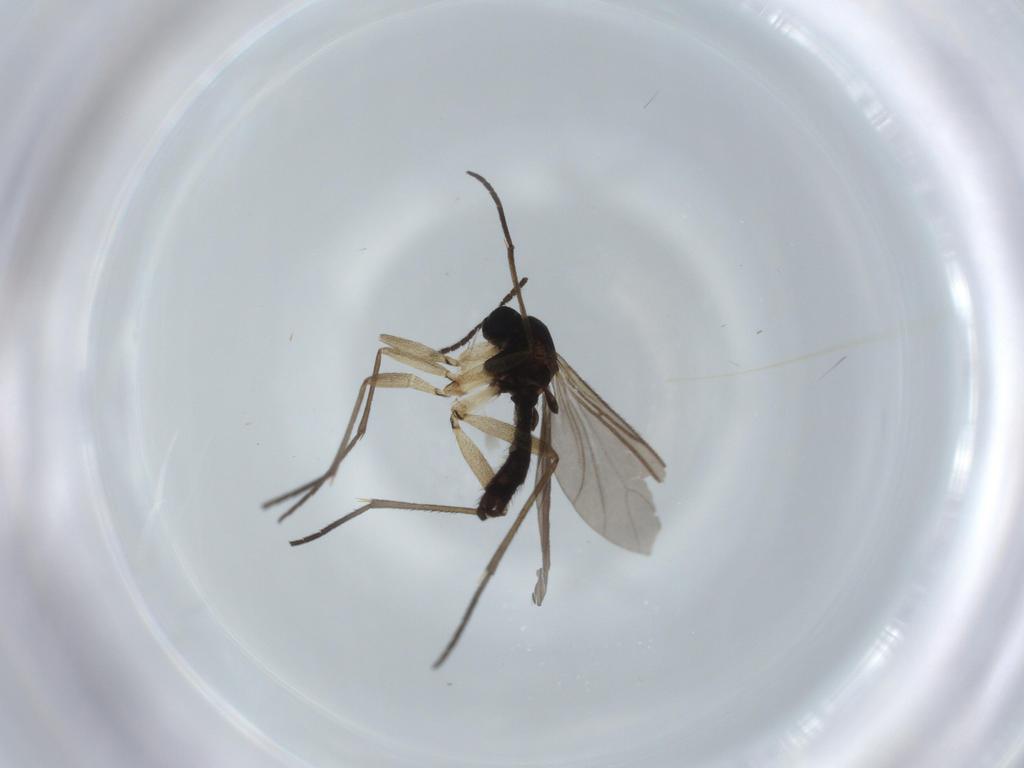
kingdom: Animalia
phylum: Arthropoda
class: Insecta
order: Diptera
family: Sciaridae
